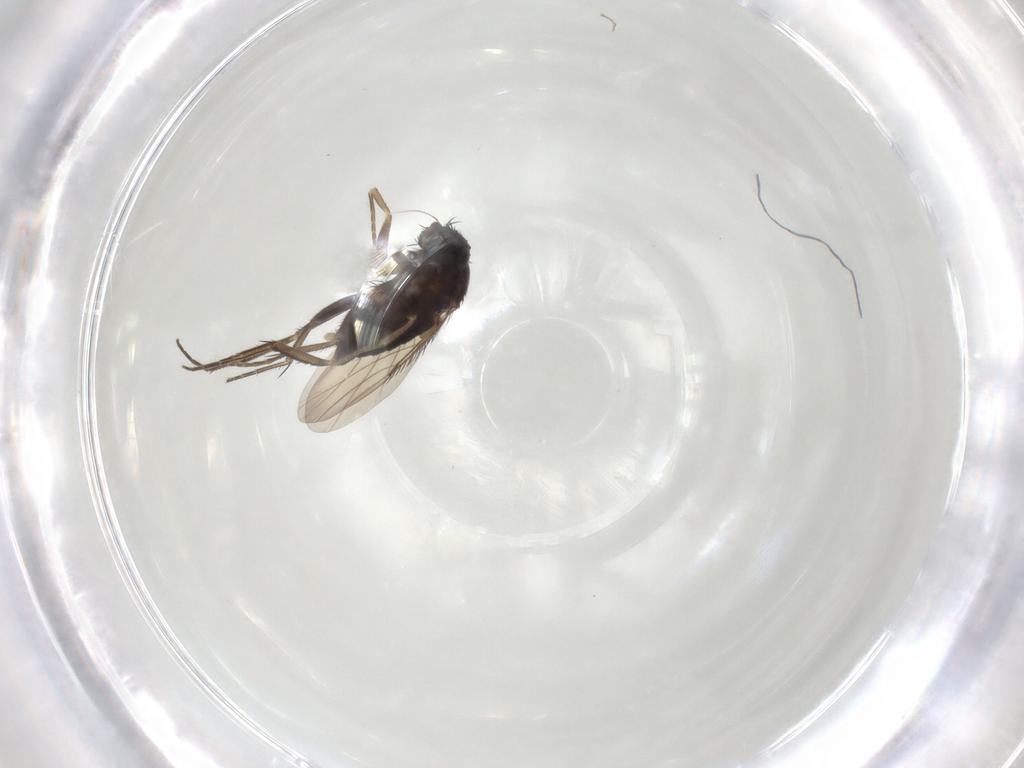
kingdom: Animalia
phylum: Arthropoda
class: Insecta
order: Diptera
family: Phoridae
